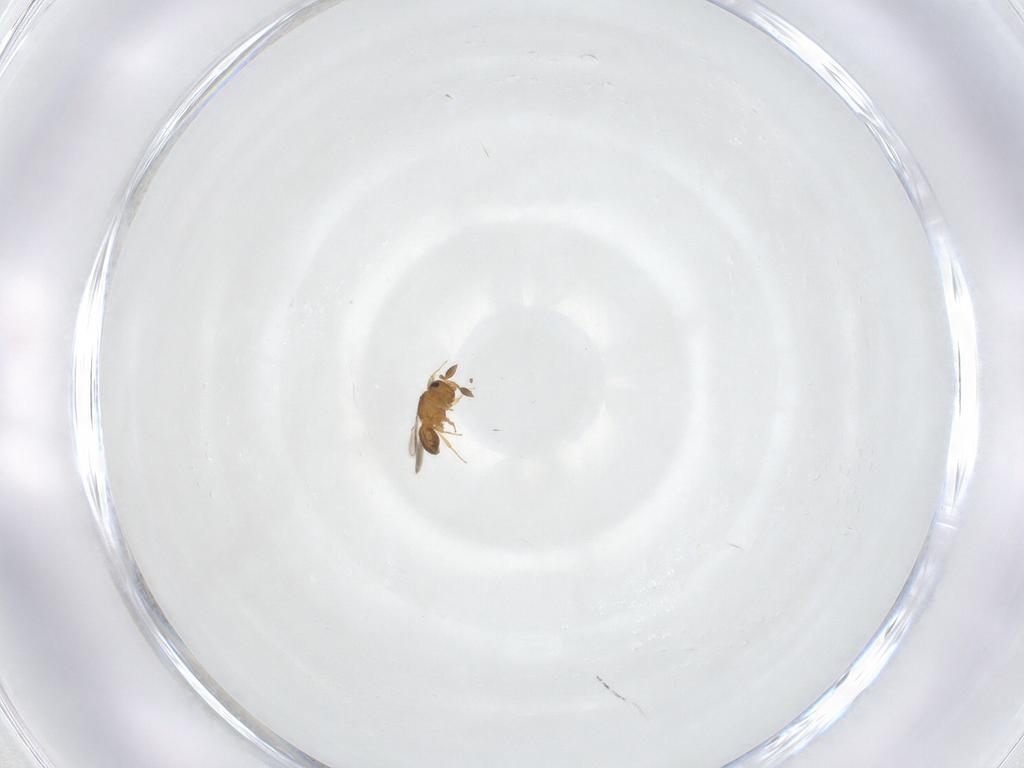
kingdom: Animalia
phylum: Arthropoda
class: Insecta
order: Hymenoptera
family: Scelionidae
